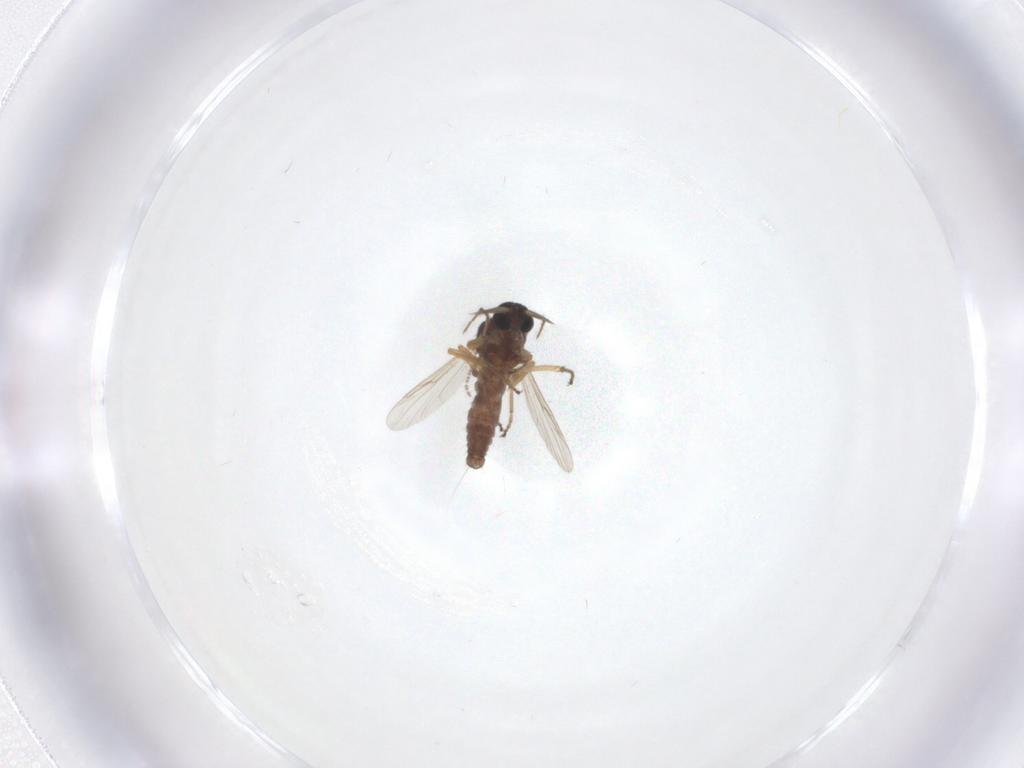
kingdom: Animalia
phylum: Arthropoda
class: Insecta
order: Diptera
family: Ceratopogonidae
